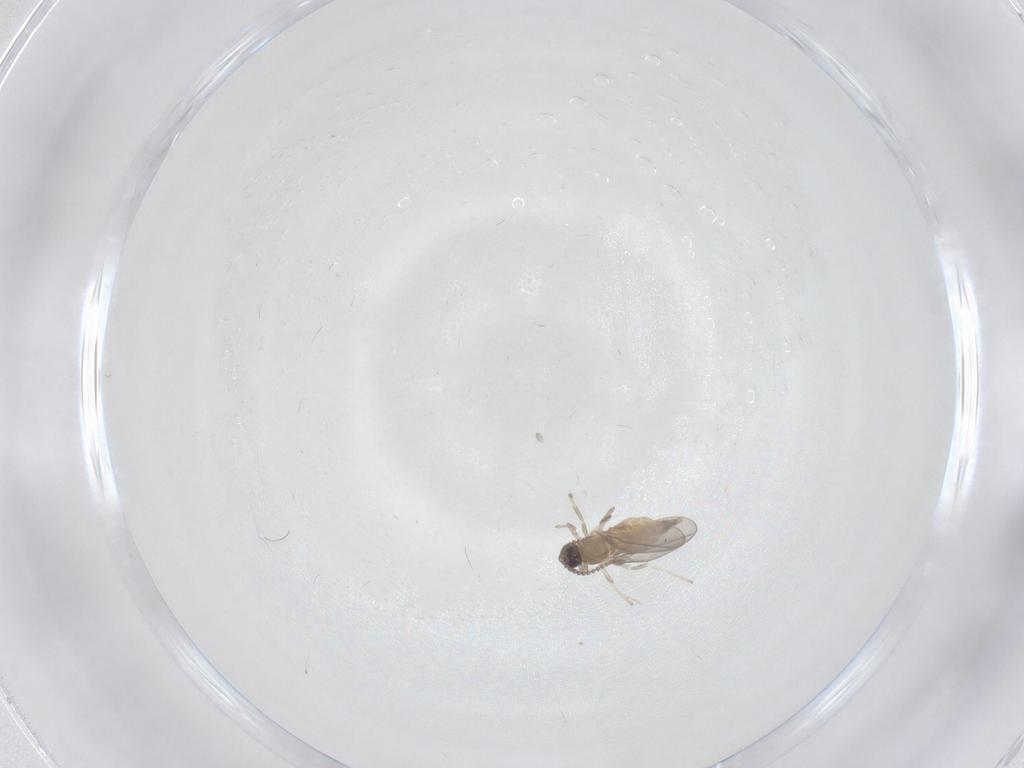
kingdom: Animalia
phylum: Arthropoda
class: Insecta
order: Diptera
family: Cecidomyiidae
